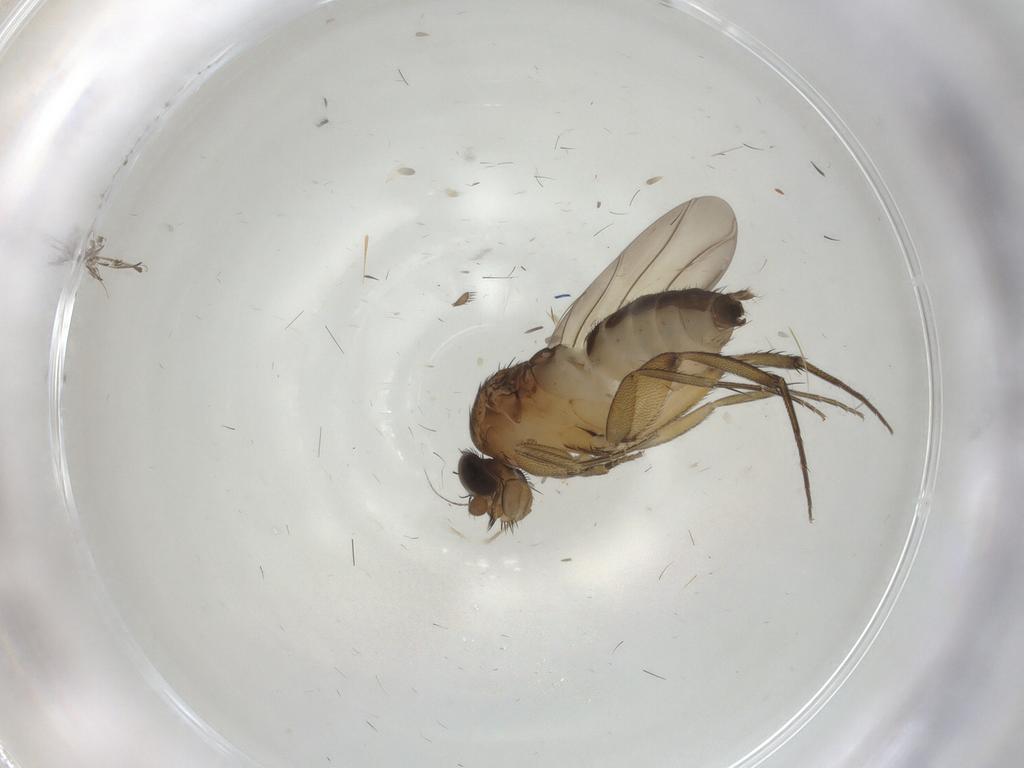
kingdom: Animalia
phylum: Arthropoda
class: Insecta
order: Diptera
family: Phoridae
